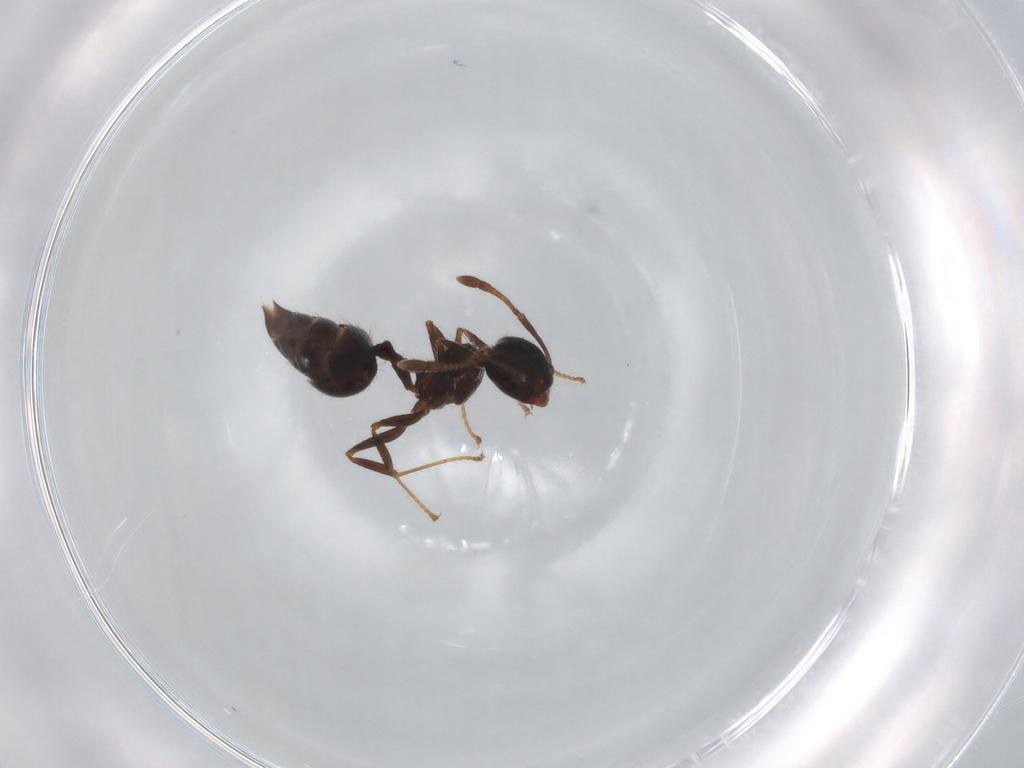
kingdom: Animalia
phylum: Arthropoda
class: Insecta
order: Hymenoptera
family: Formicidae
